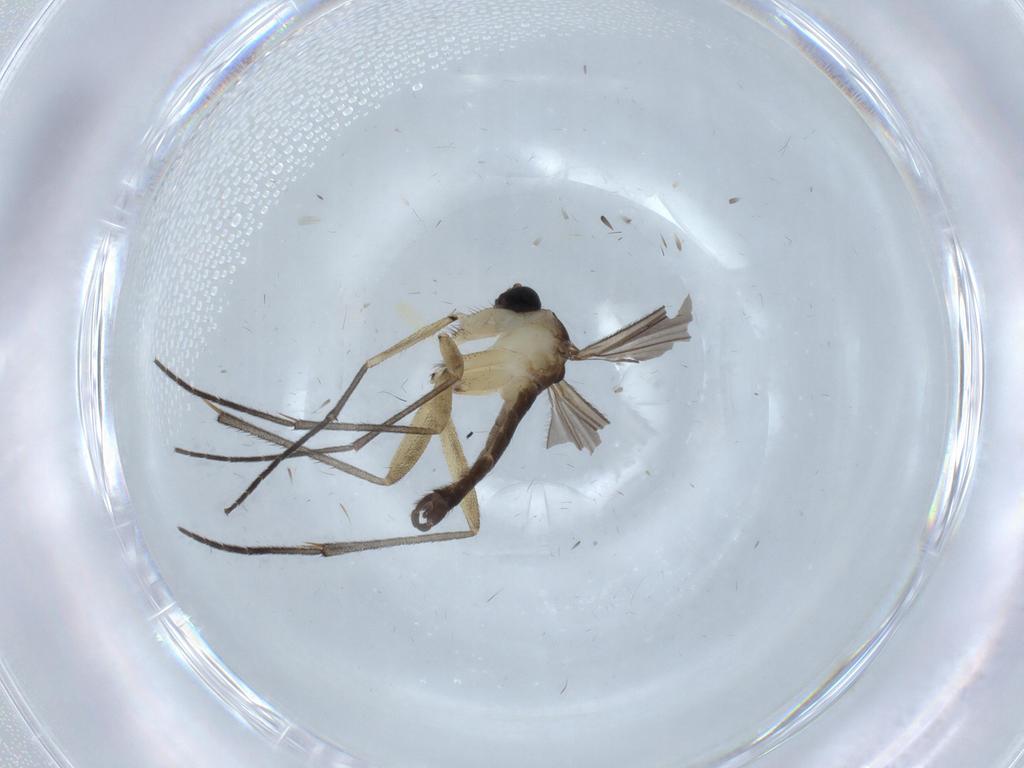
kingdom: Animalia
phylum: Arthropoda
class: Insecta
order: Diptera
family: Sciaridae
